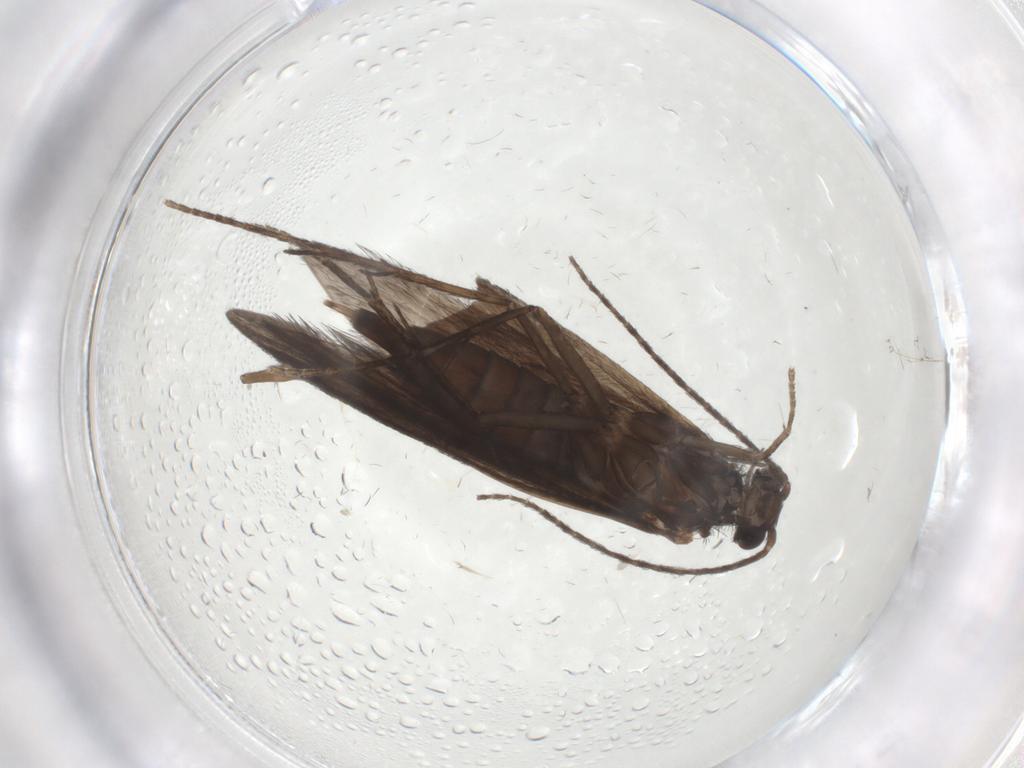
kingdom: Animalia
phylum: Arthropoda
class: Insecta
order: Trichoptera
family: Xiphocentronidae
